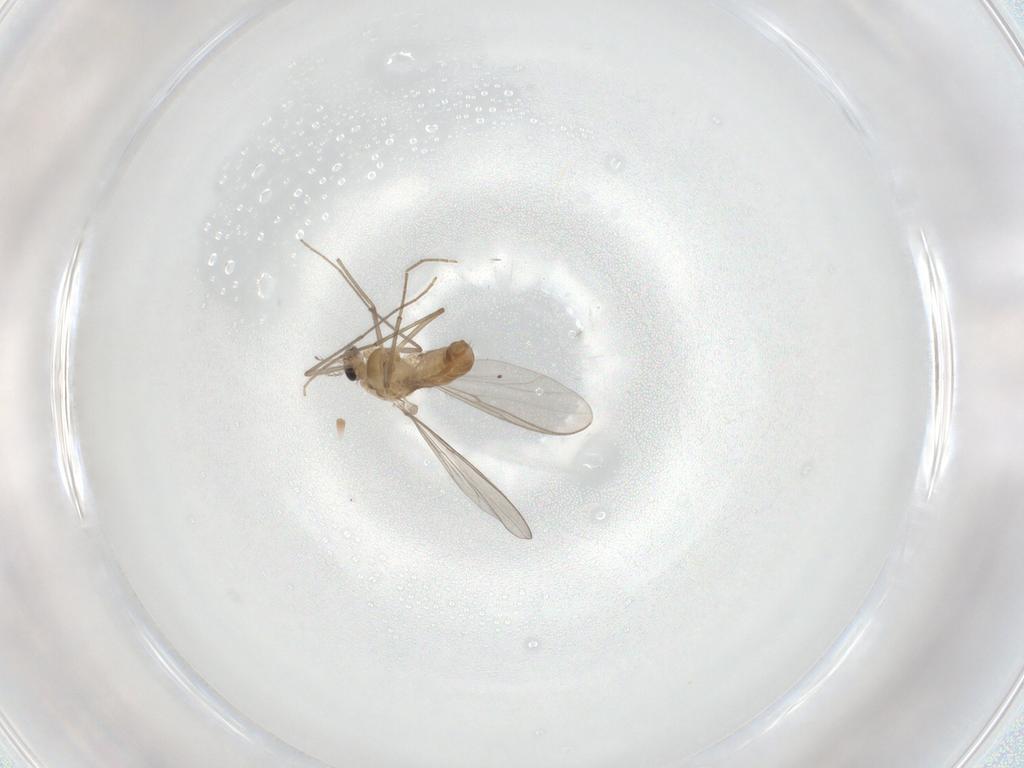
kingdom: Animalia
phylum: Arthropoda
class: Insecta
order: Diptera
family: Chironomidae
